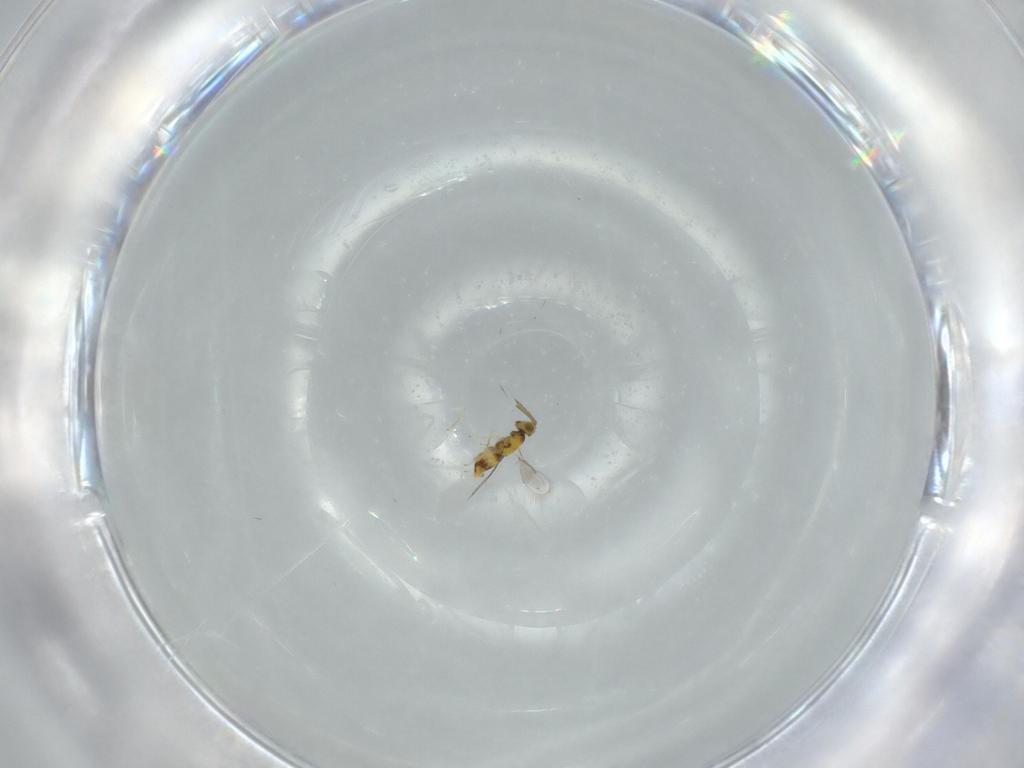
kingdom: Animalia
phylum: Arthropoda
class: Insecta
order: Hymenoptera
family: Aphelinidae
